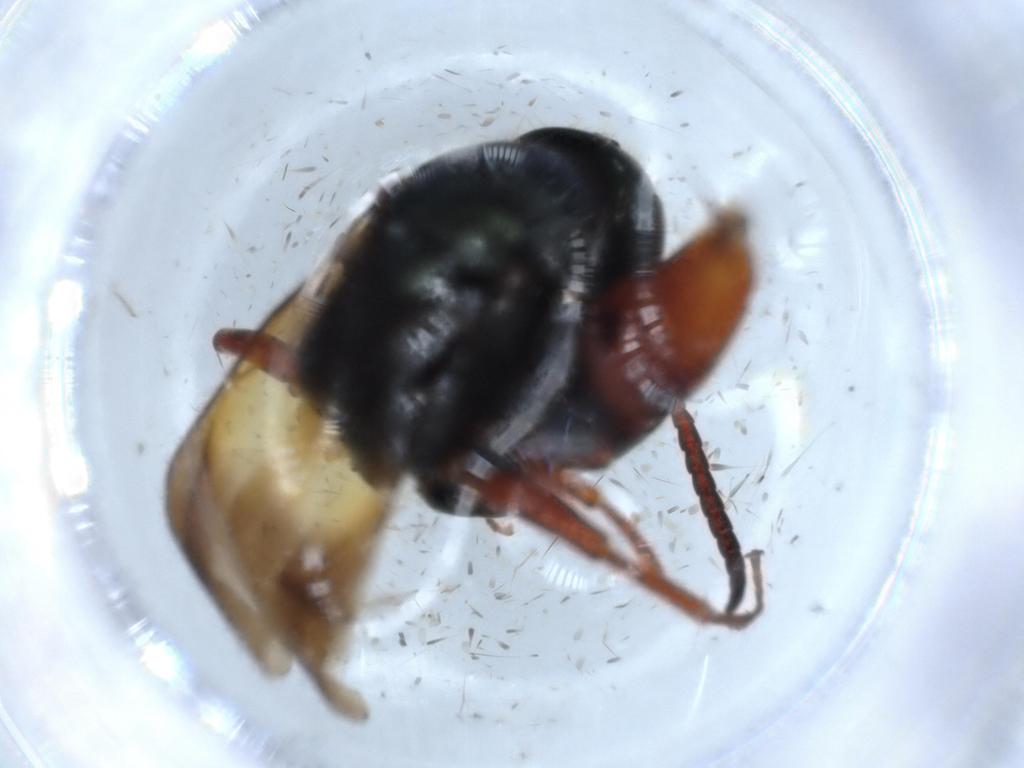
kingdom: Animalia
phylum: Arthropoda
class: Insecta
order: Hymenoptera
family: Bethylidae
